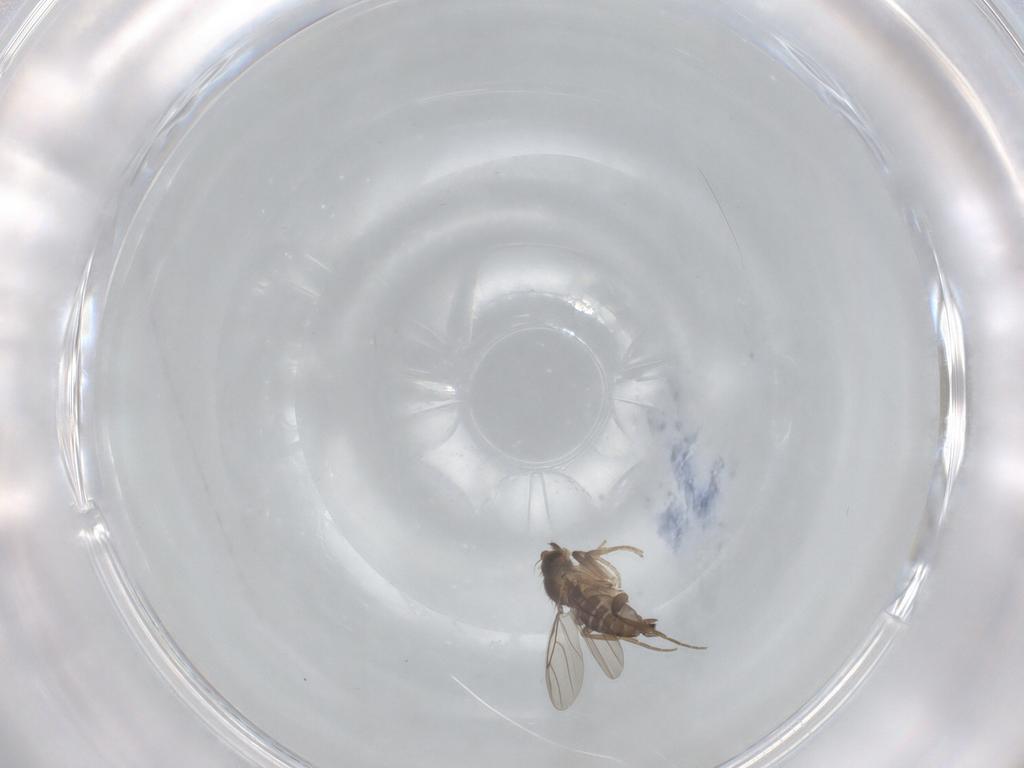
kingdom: Animalia
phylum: Arthropoda
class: Insecta
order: Diptera
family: Phoridae
